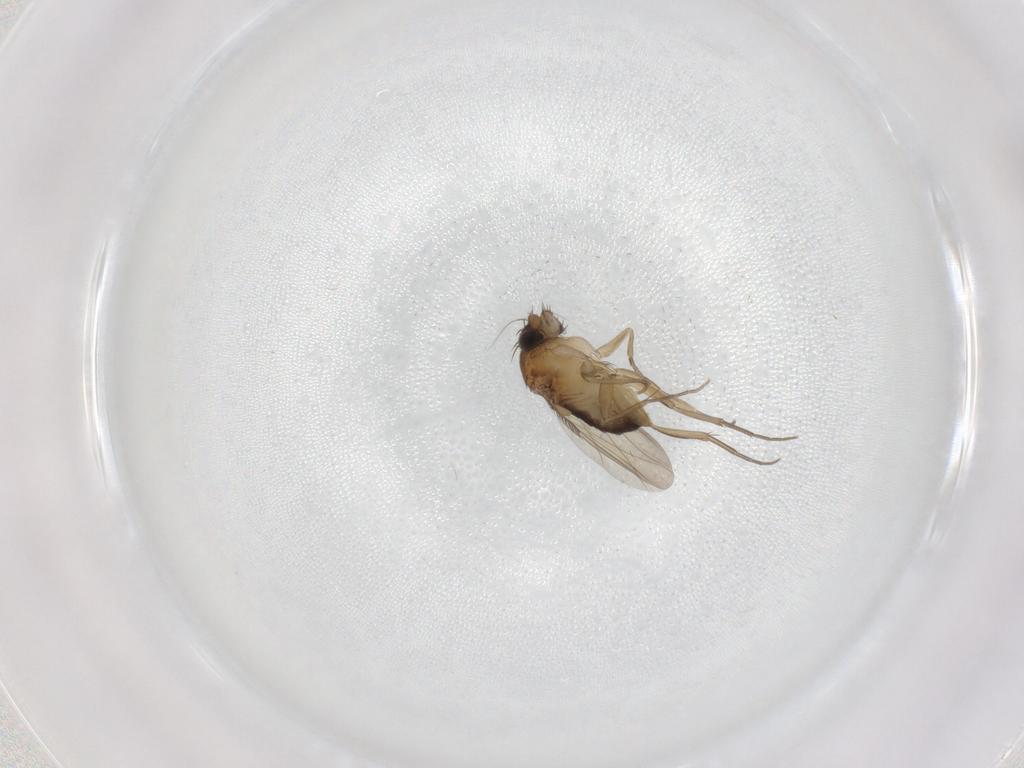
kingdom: Animalia
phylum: Arthropoda
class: Insecta
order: Diptera
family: Phoridae
